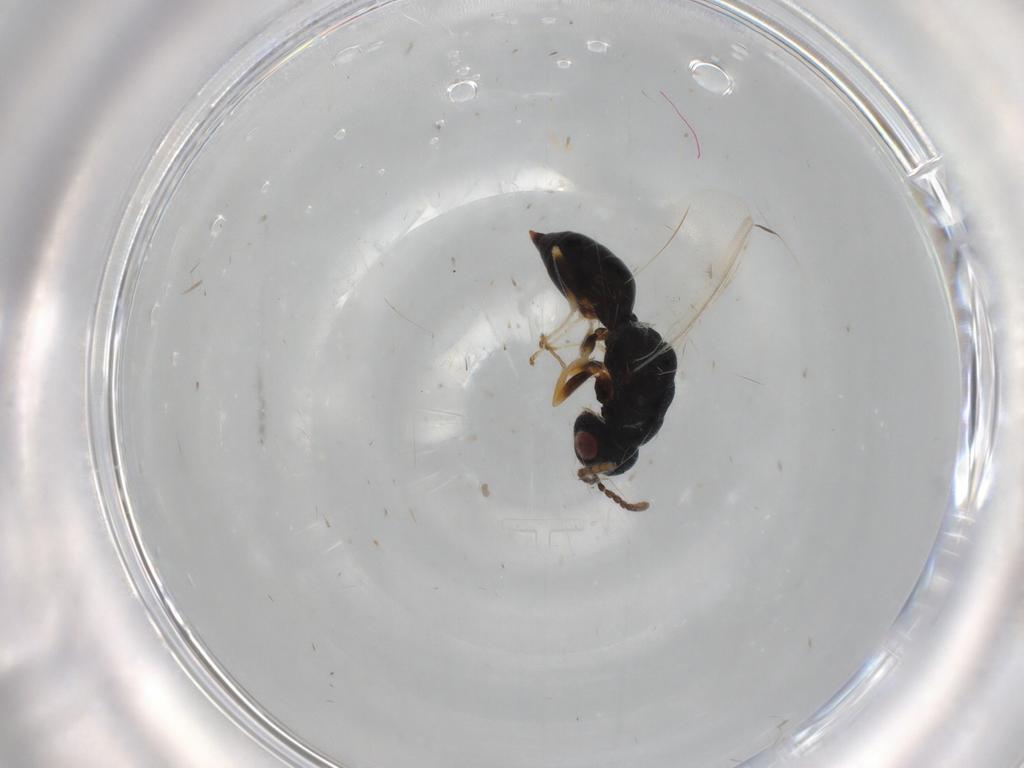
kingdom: Animalia
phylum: Arthropoda
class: Insecta
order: Hymenoptera
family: Eurytomidae
